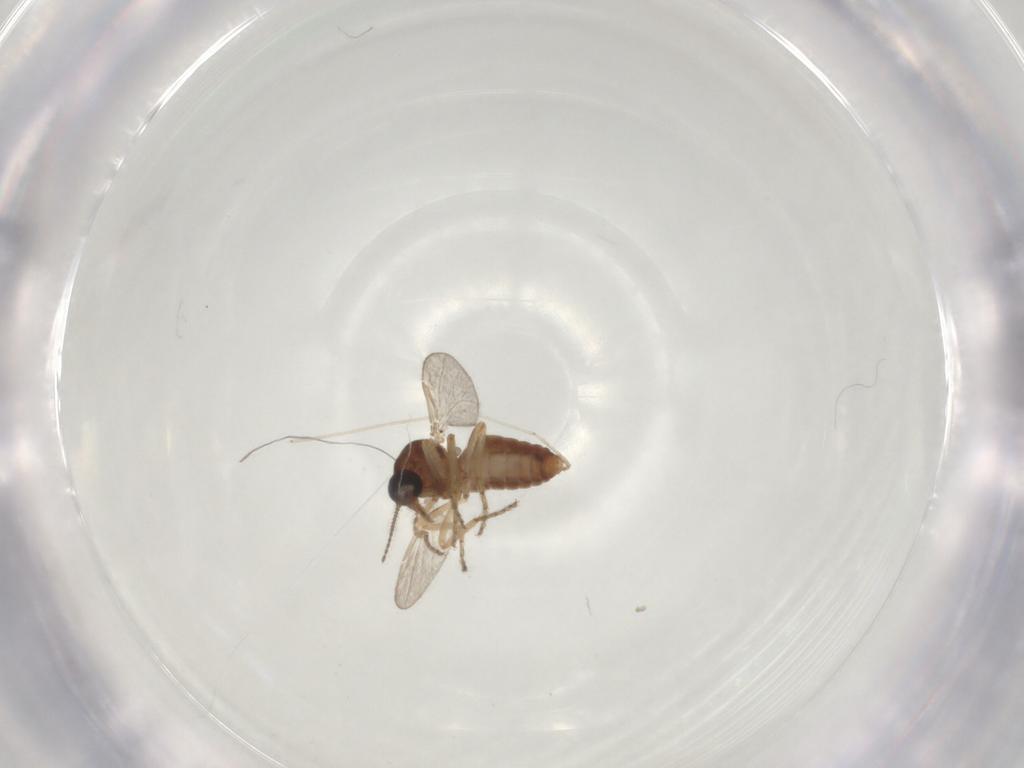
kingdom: Animalia
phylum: Arthropoda
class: Insecta
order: Diptera
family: Ceratopogonidae
